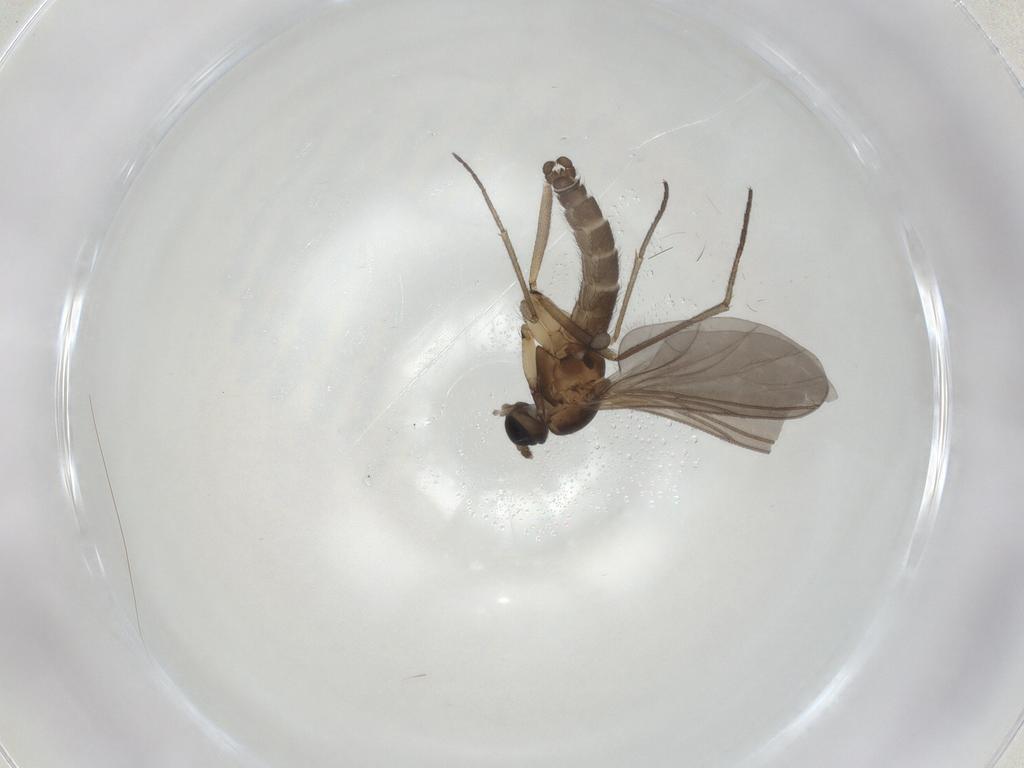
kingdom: Animalia
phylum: Arthropoda
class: Insecta
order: Diptera
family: Sciaridae
